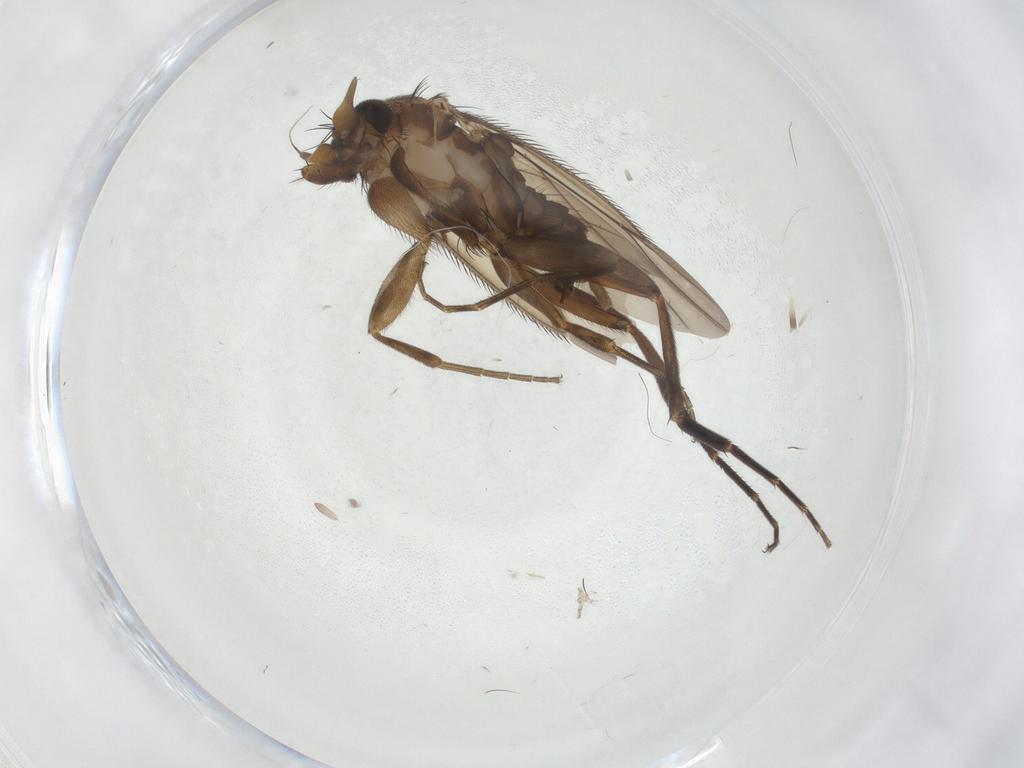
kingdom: Animalia
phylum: Arthropoda
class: Insecta
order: Diptera
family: Phoridae
